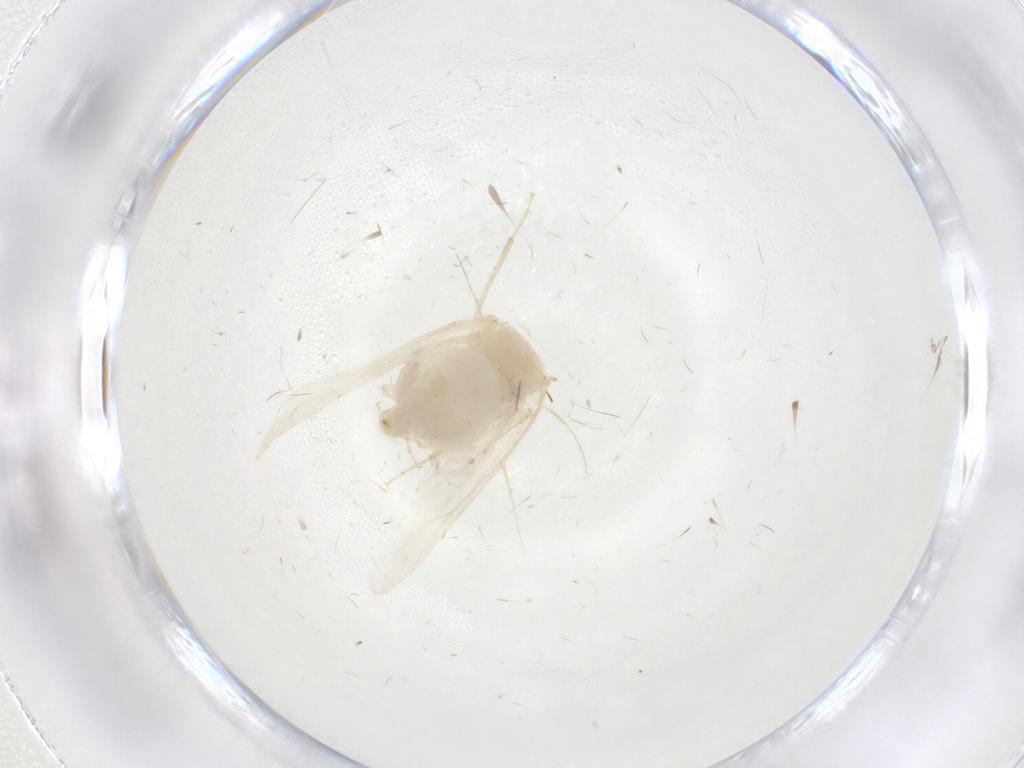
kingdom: Animalia
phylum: Arthropoda
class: Insecta
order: Hemiptera
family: Aleyrodidae
